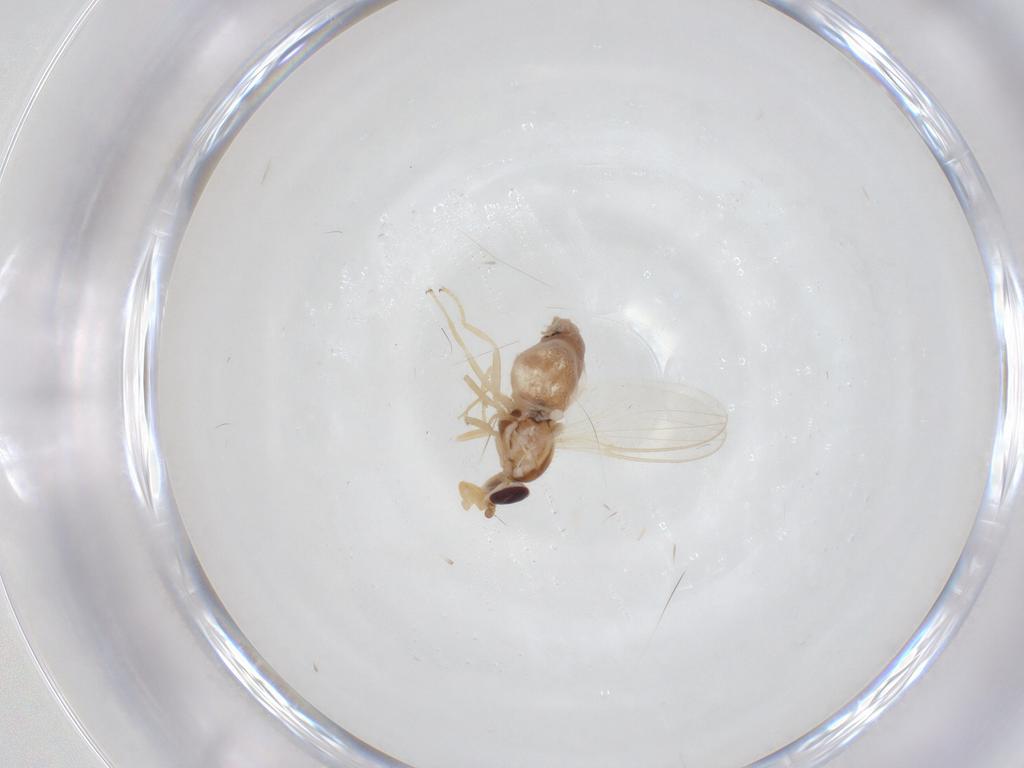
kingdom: Animalia
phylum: Arthropoda
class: Insecta
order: Diptera
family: Chloropidae
